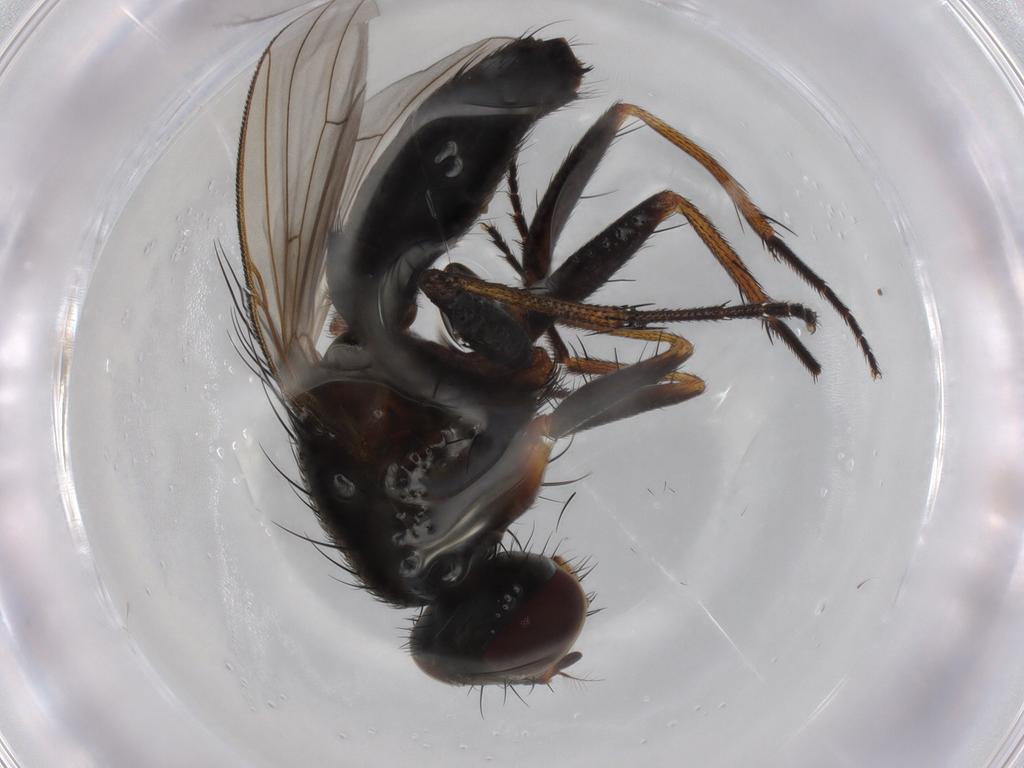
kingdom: Animalia
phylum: Arthropoda
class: Insecta
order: Diptera
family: Muscidae
